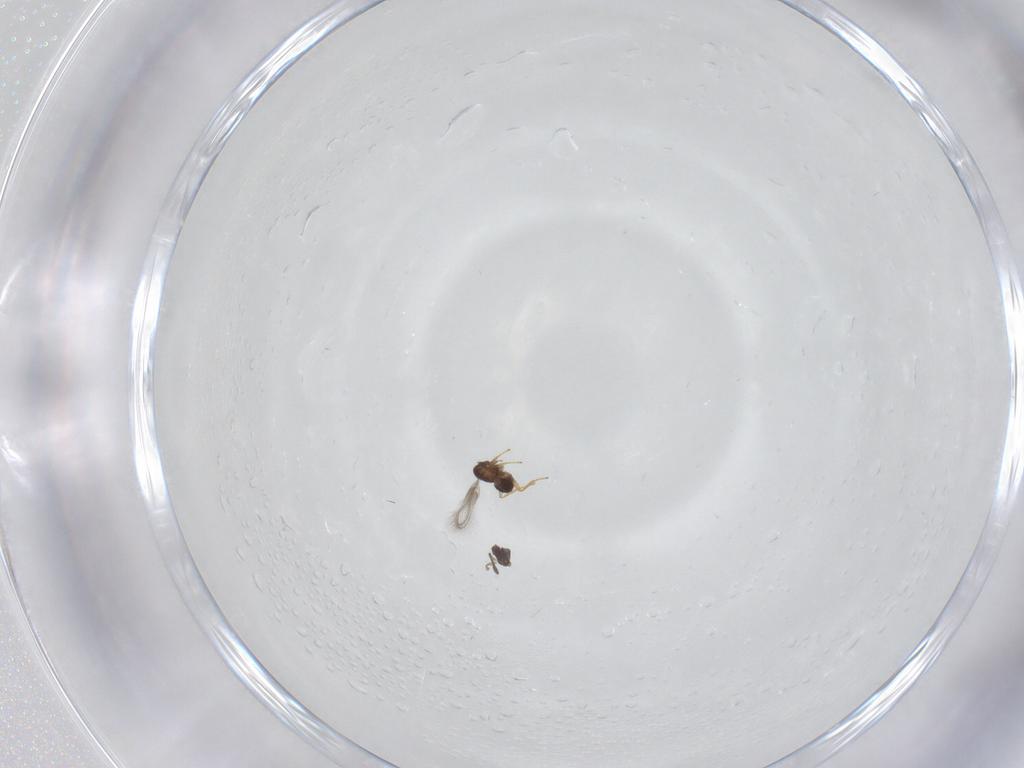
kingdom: Animalia
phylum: Arthropoda
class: Insecta
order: Hymenoptera
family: Mymaridae
